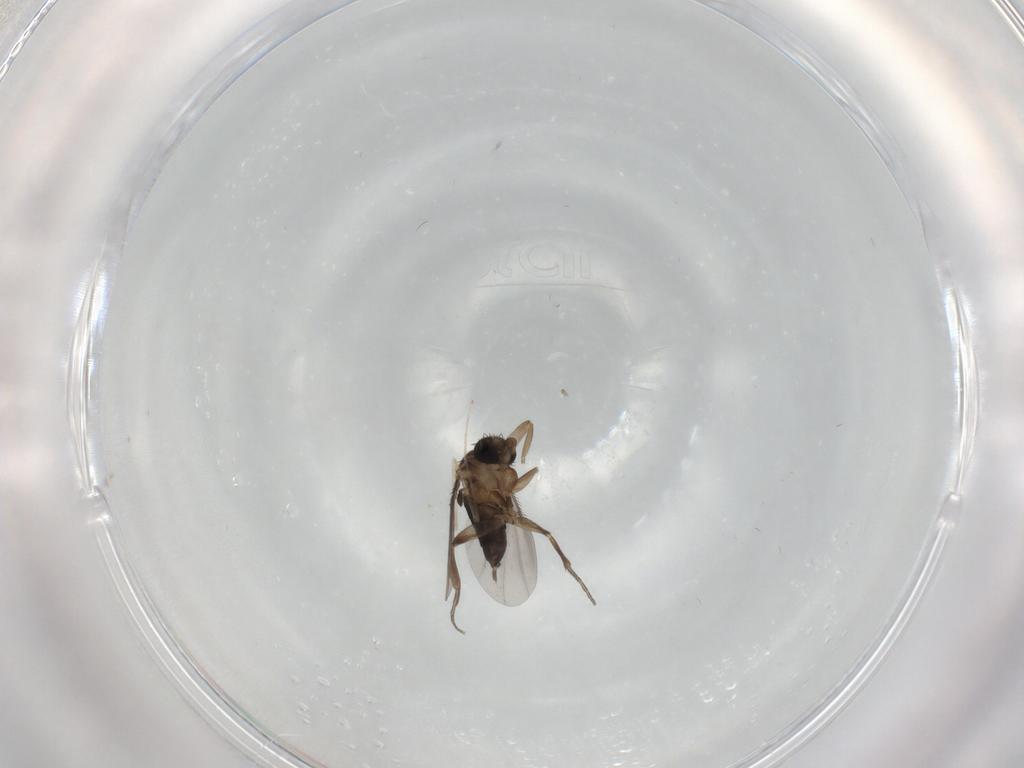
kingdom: Animalia
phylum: Arthropoda
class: Insecta
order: Diptera
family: Phoridae
